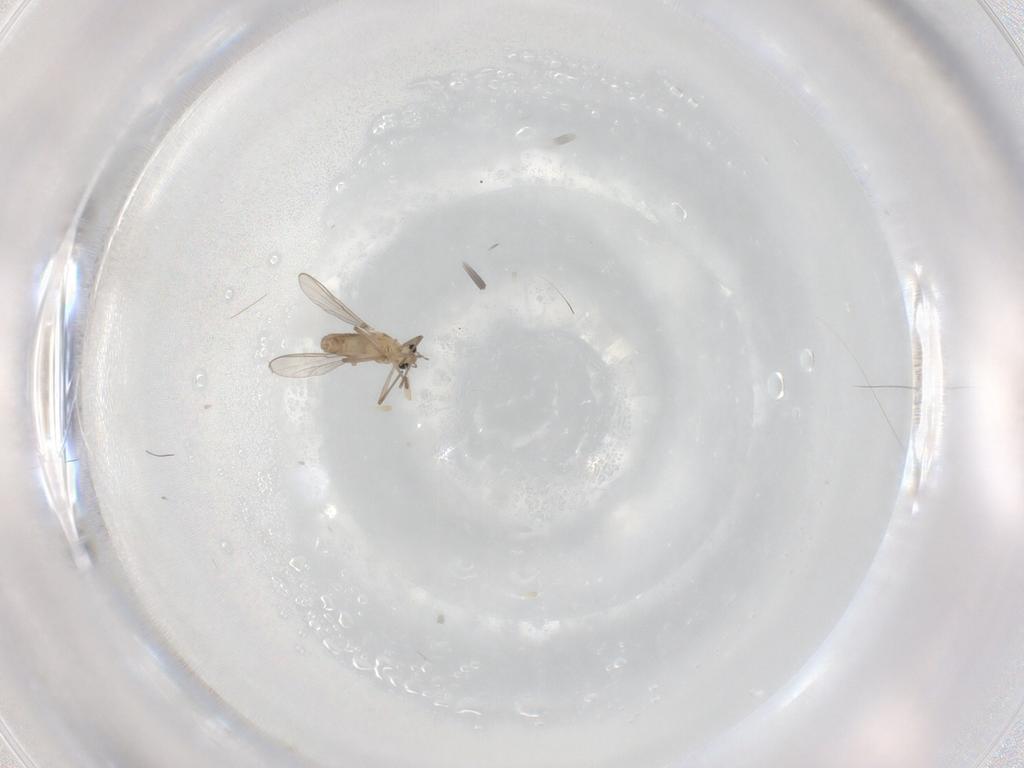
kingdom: Animalia
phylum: Arthropoda
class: Insecta
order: Diptera
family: Chironomidae
